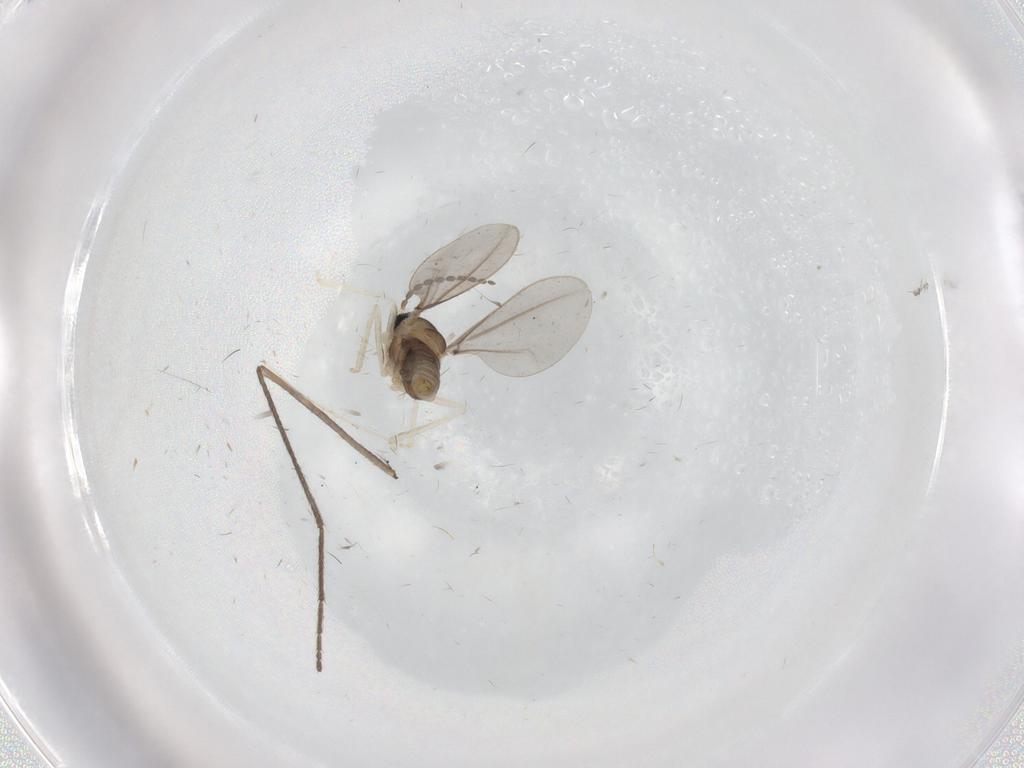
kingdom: Animalia
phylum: Arthropoda
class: Insecta
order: Diptera
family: Cecidomyiidae
